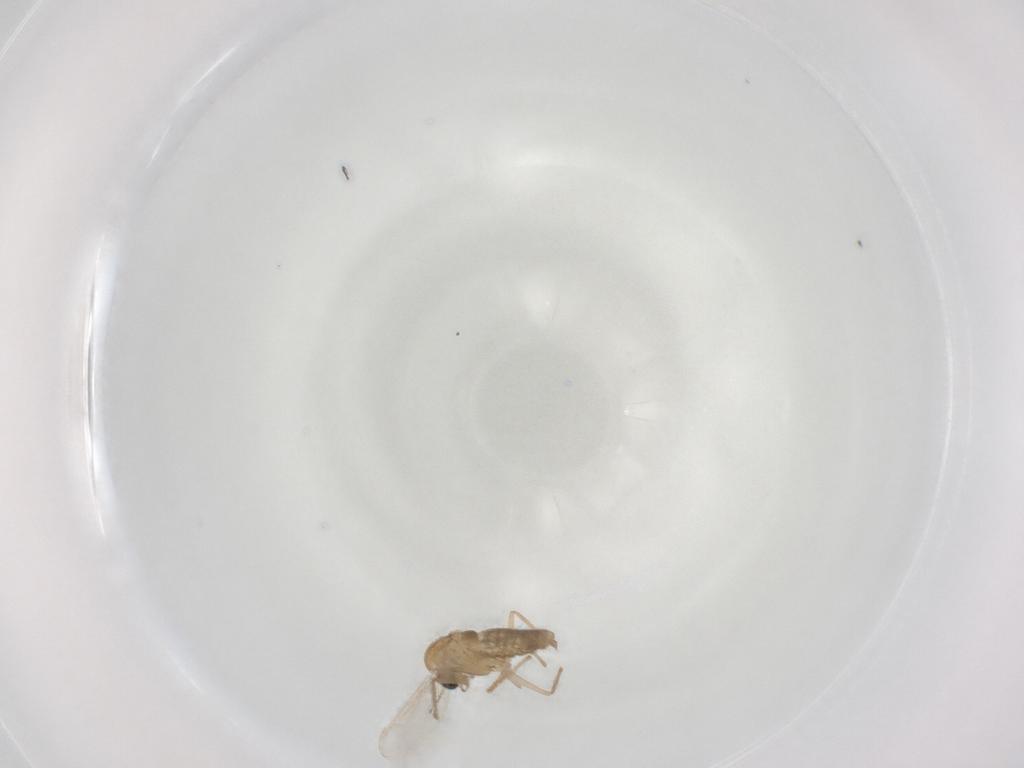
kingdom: Animalia
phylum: Arthropoda
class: Insecta
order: Diptera
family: Chironomidae
